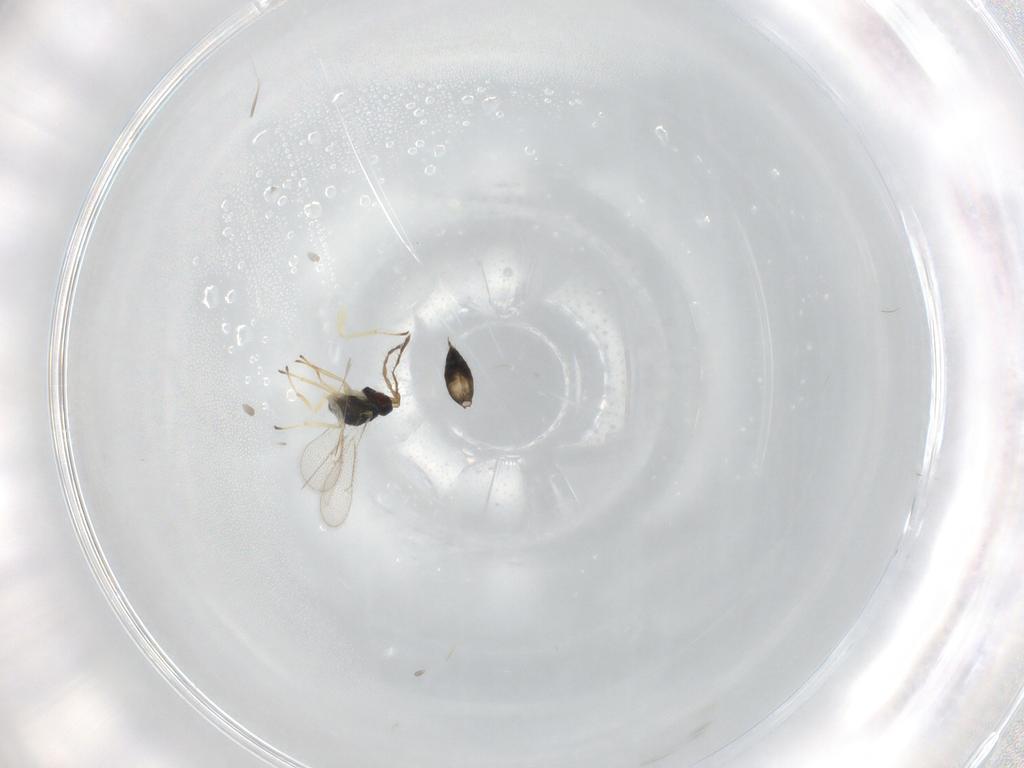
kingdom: Animalia
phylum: Arthropoda
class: Insecta
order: Hymenoptera
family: Eulophidae
